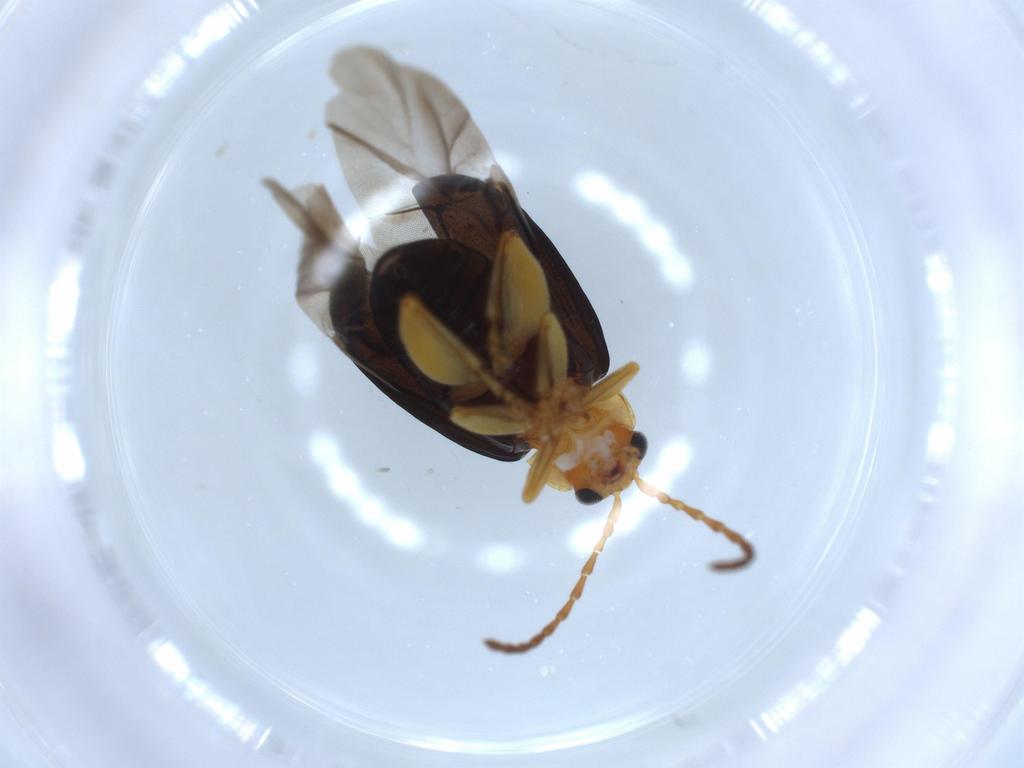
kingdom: Animalia
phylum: Arthropoda
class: Insecta
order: Coleoptera
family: Chrysomelidae
